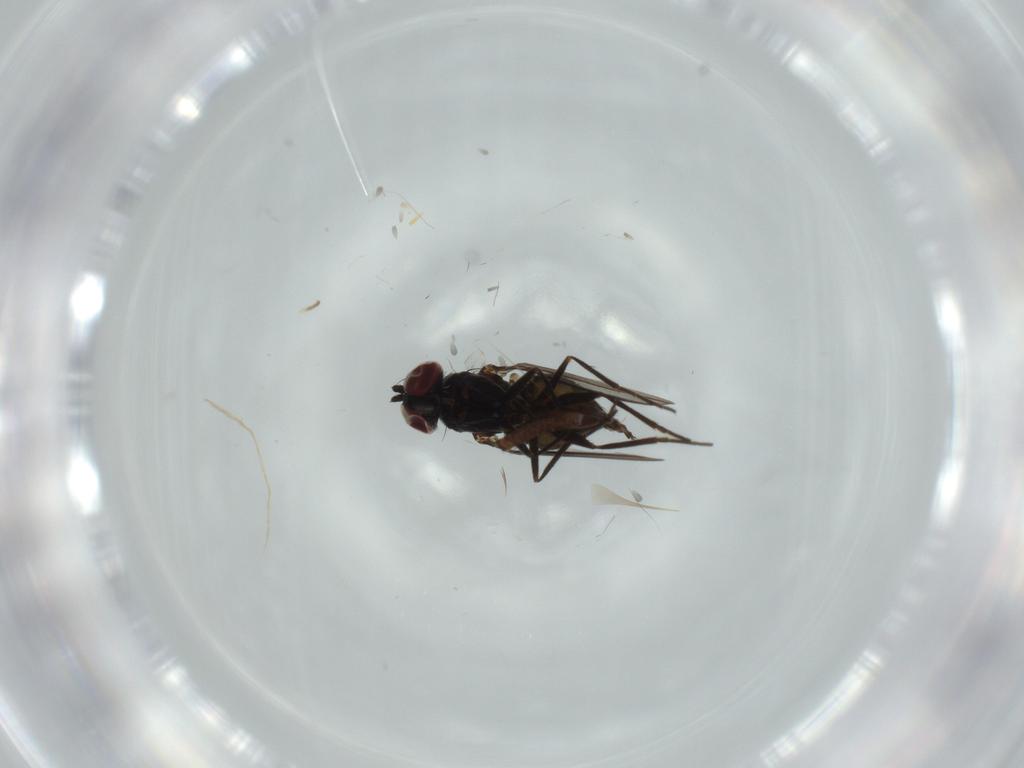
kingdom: Animalia
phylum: Arthropoda
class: Insecta
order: Diptera
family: Dolichopodidae
